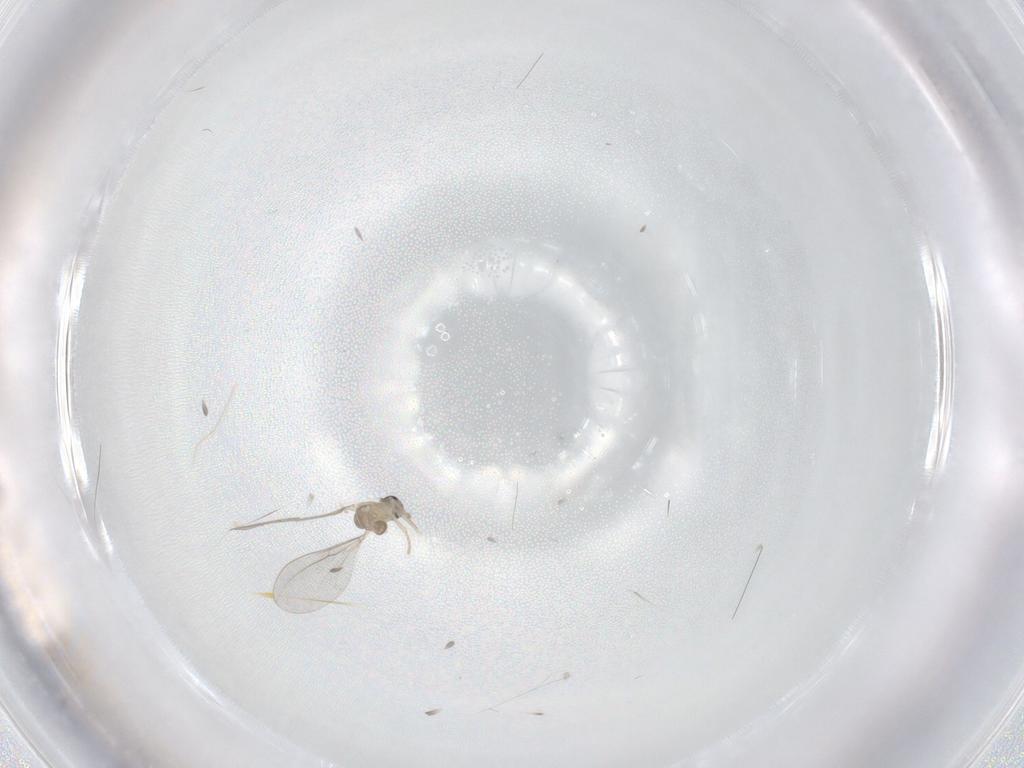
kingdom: Animalia
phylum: Arthropoda
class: Insecta
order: Diptera
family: Cecidomyiidae
